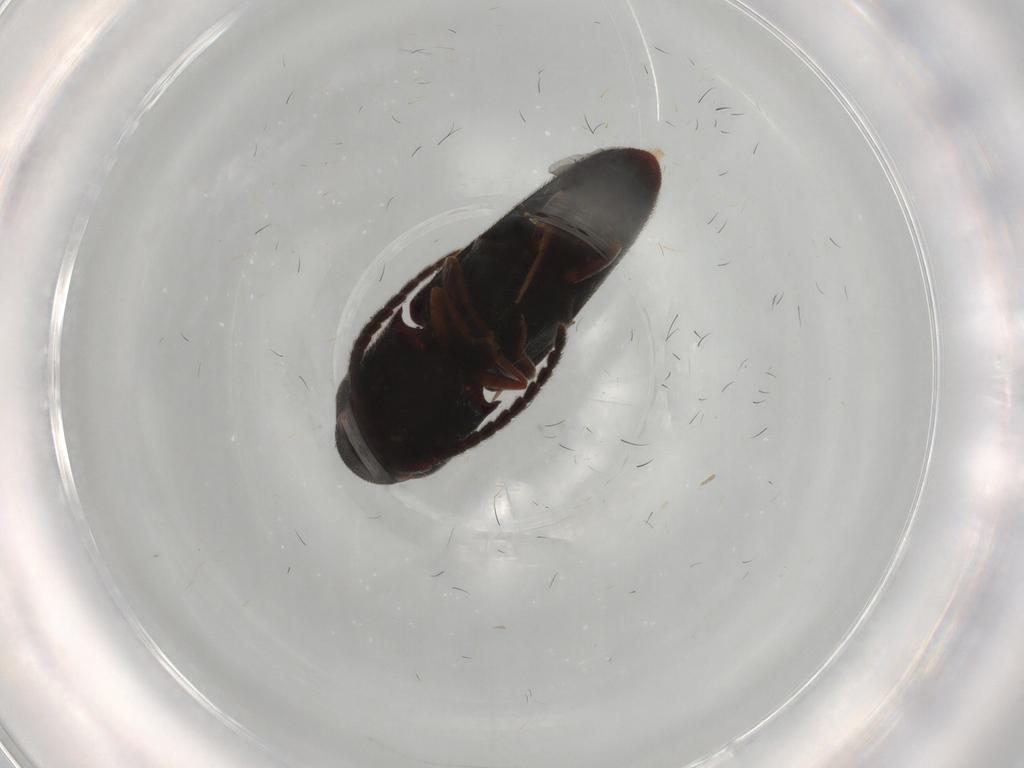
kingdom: Animalia
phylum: Arthropoda
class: Insecta
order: Coleoptera
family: Eucnemidae
